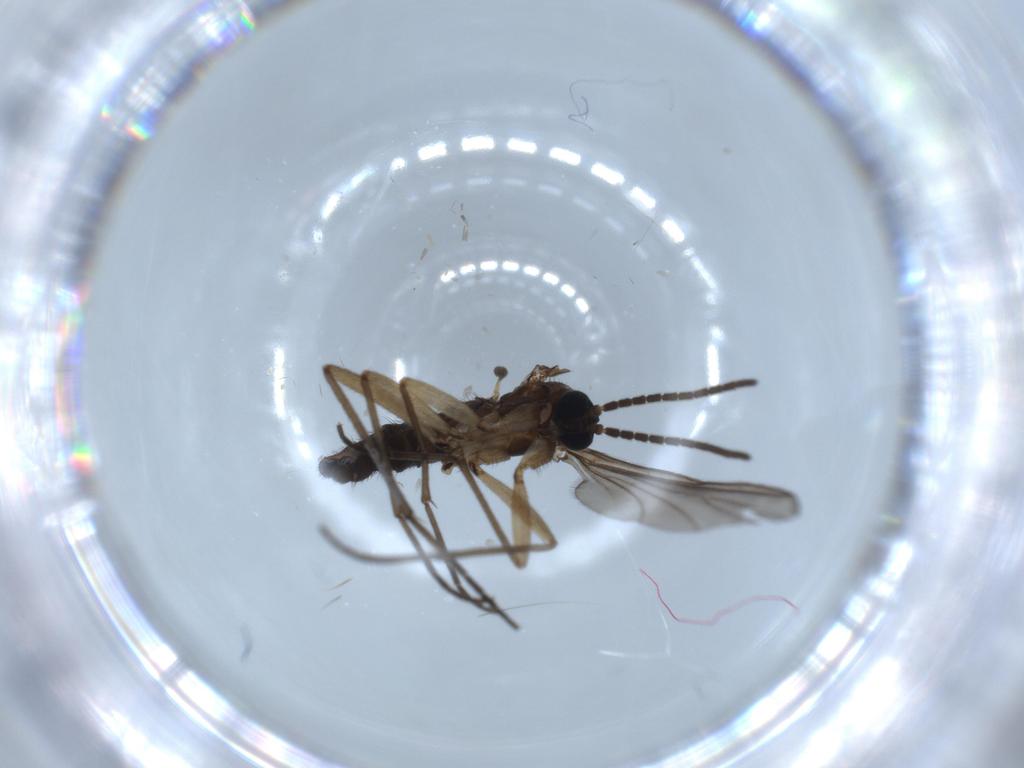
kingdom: Animalia
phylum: Arthropoda
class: Insecta
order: Diptera
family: Sciaridae
